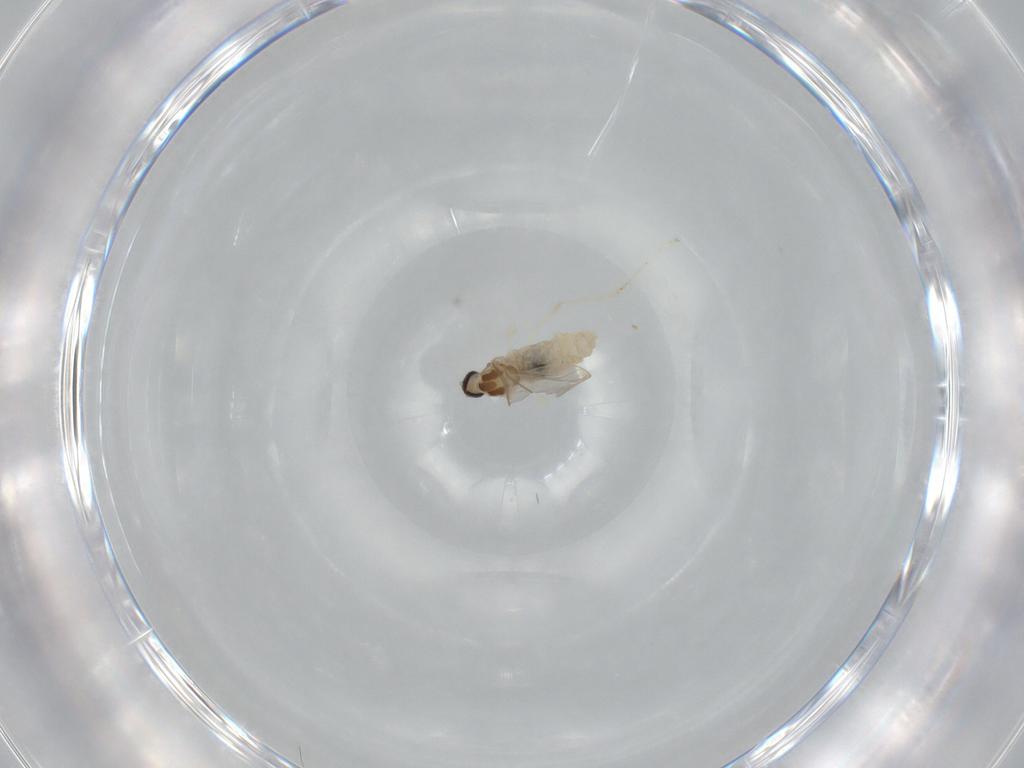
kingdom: Animalia
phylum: Arthropoda
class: Insecta
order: Diptera
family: Cecidomyiidae
